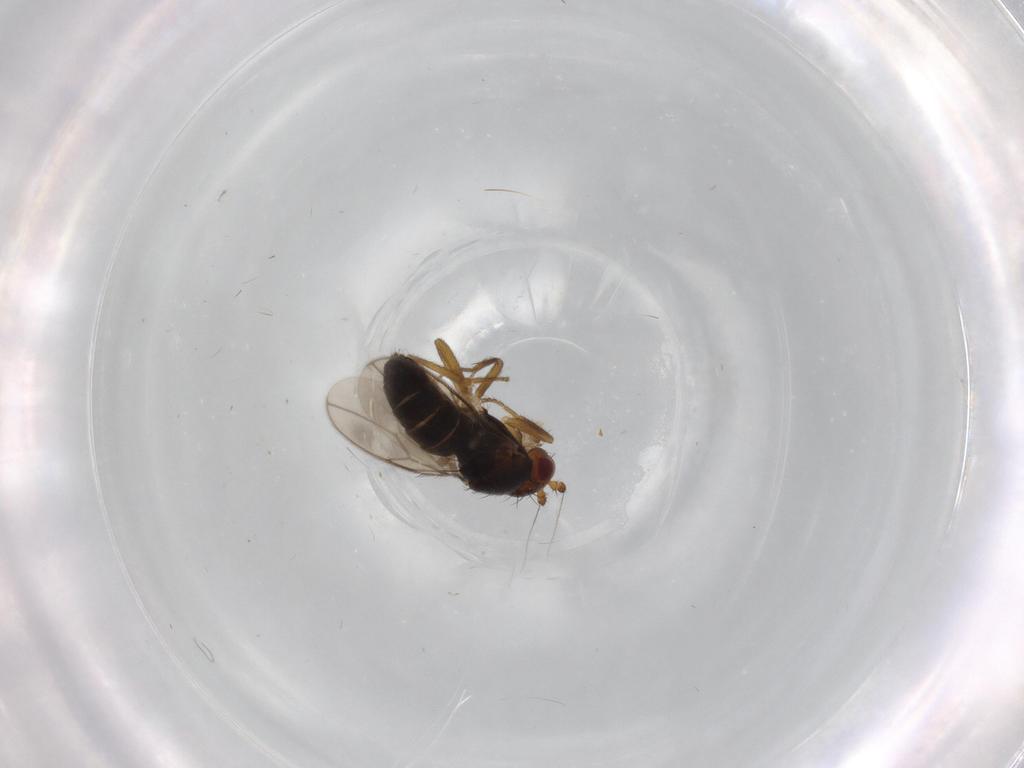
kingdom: Animalia
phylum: Arthropoda
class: Insecta
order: Diptera
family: Sphaeroceridae
